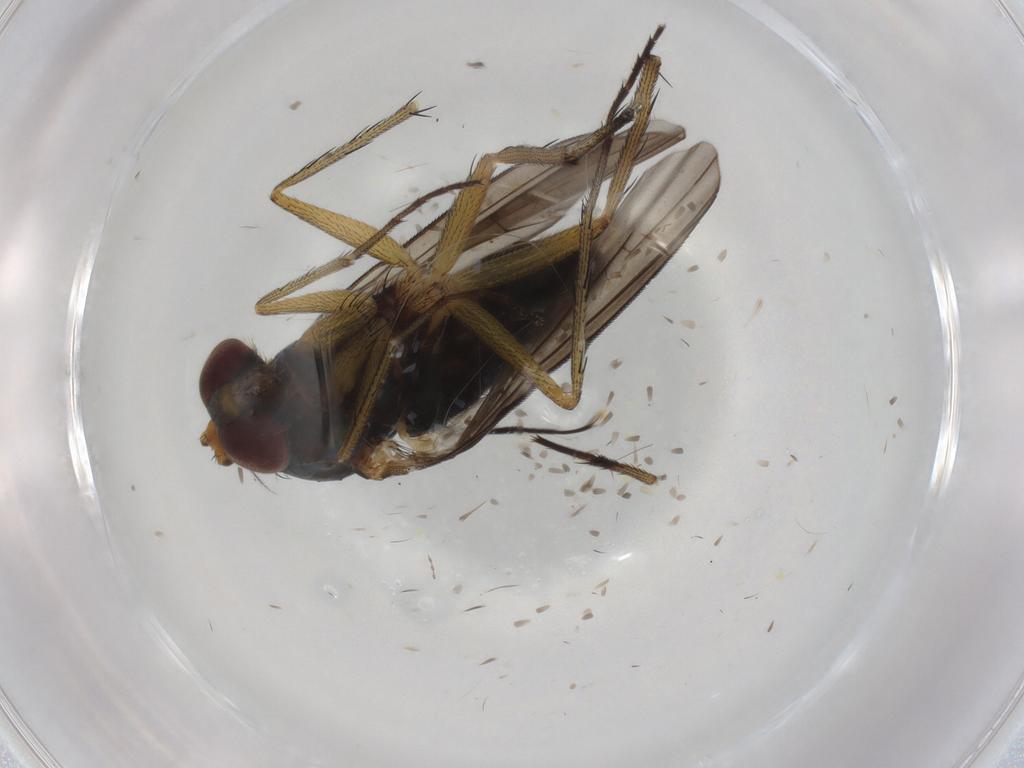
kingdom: Animalia
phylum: Arthropoda
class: Insecta
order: Diptera
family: Dolichopodidae
